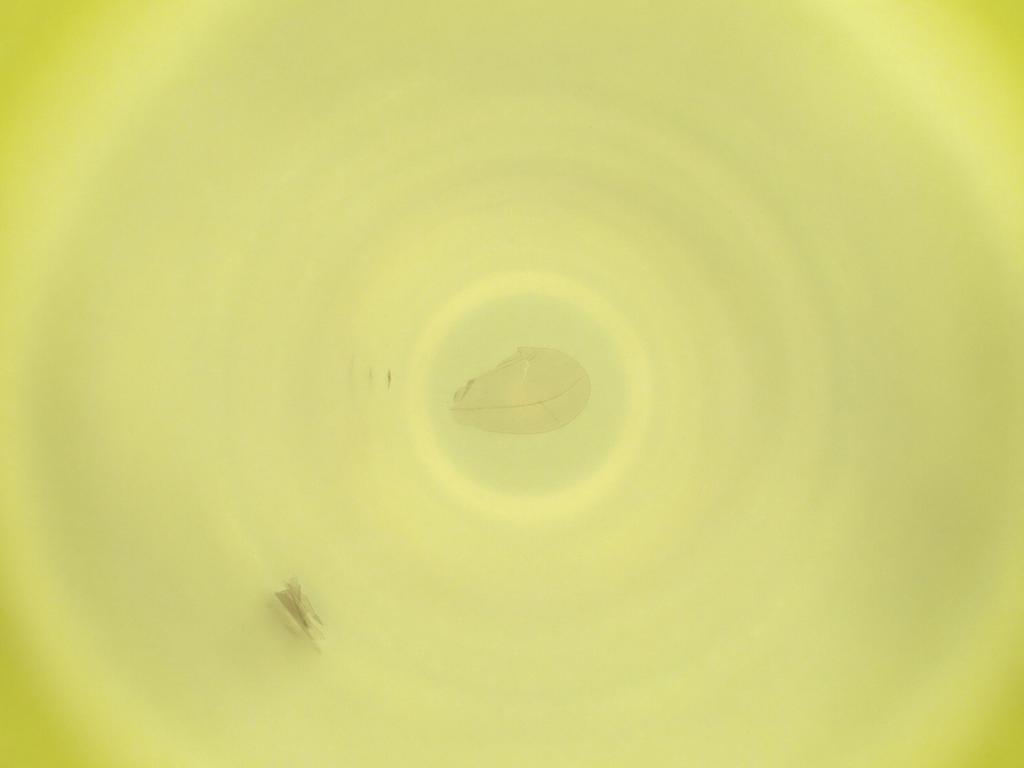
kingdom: Animalia
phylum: Arthropoda
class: Insecta
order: Diptera
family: Cecidomyiidae
